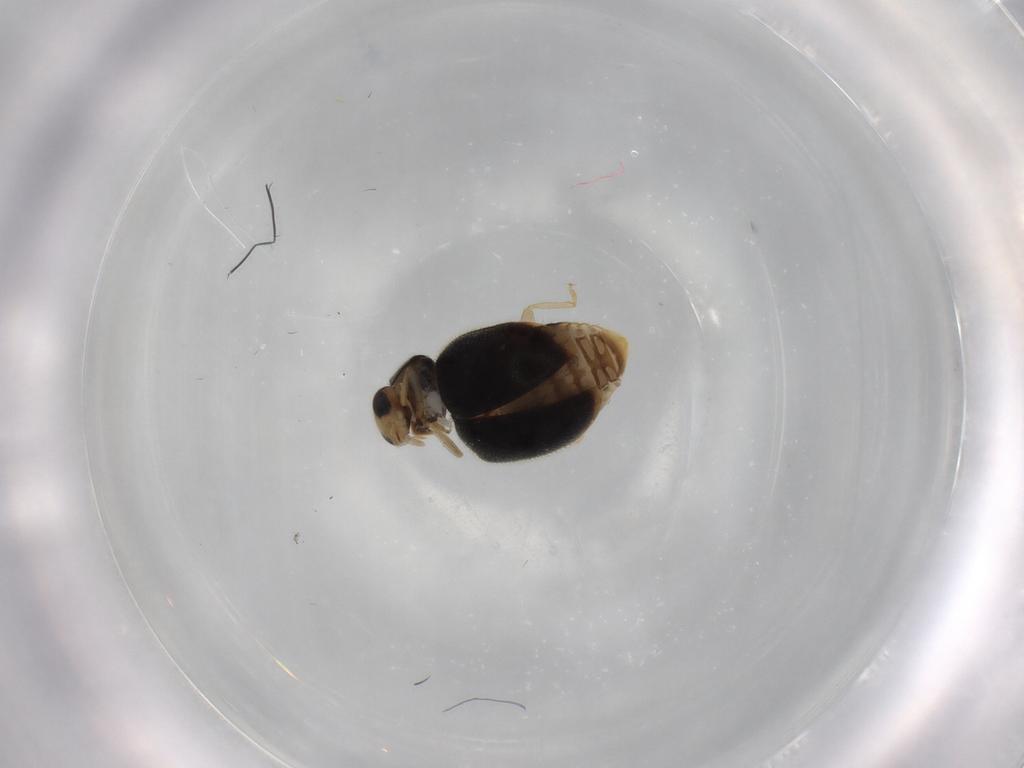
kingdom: Animalia
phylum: Arthropoda
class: Insecta
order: Coleoptera
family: Coccinellidae
